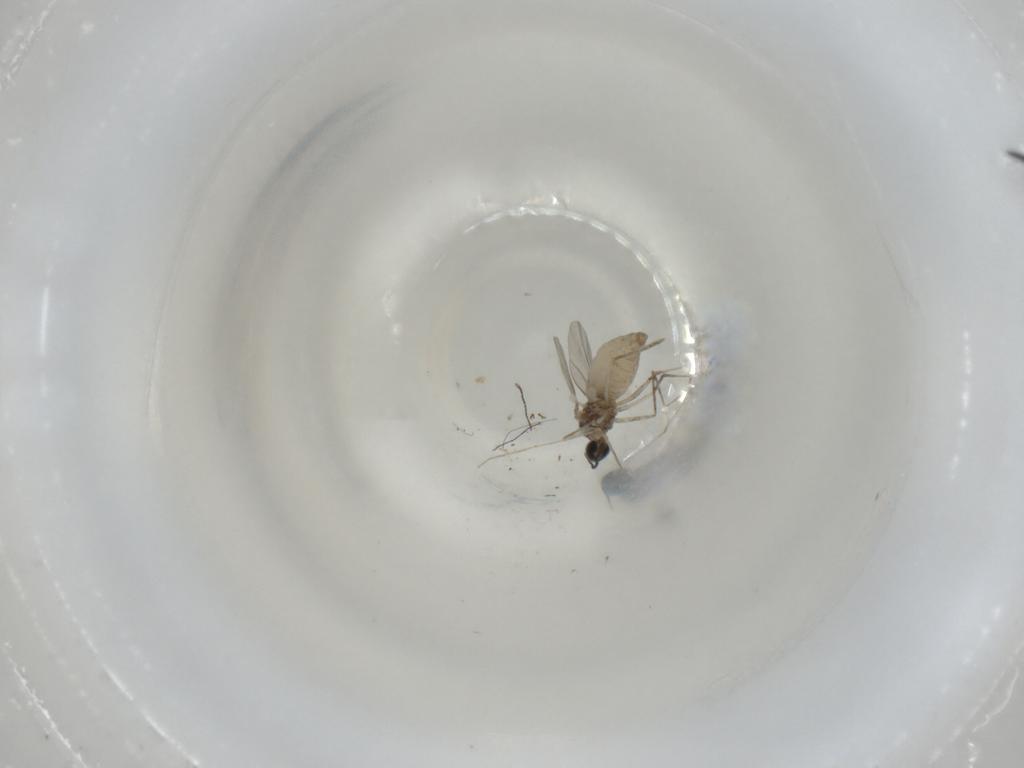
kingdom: Animalia
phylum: Arthropoda
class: Insecta
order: Diptera
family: Cecidomyiidae
